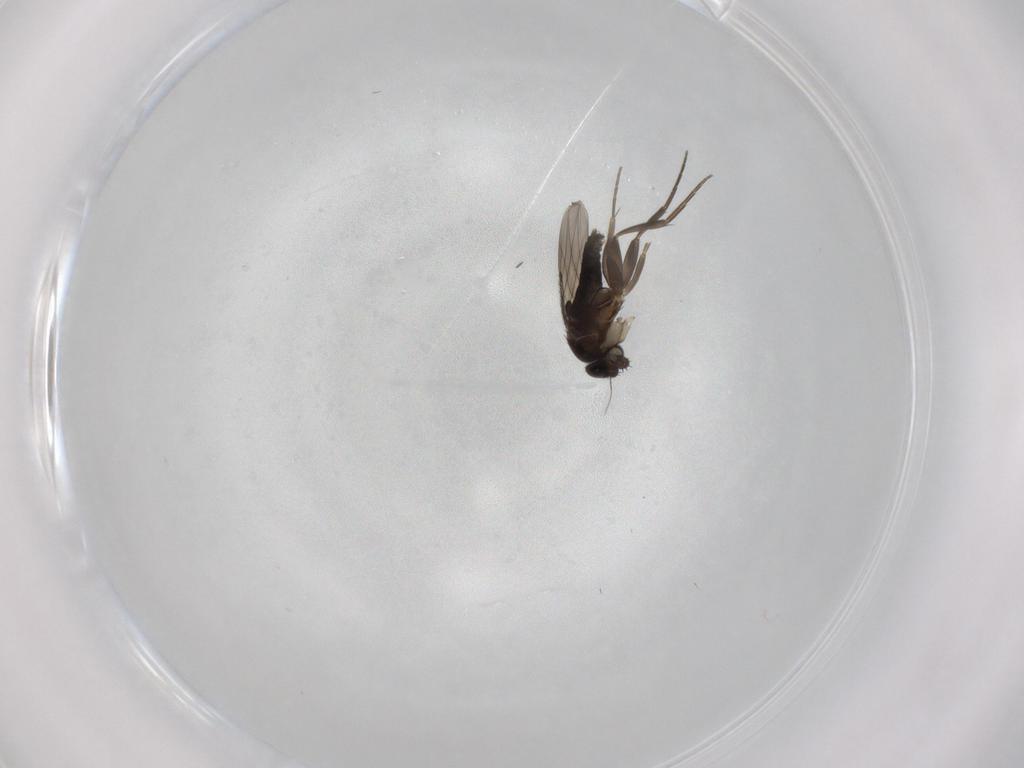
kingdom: Animalia
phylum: Arthropoda
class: Insecta
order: Diptera
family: Phoridae
